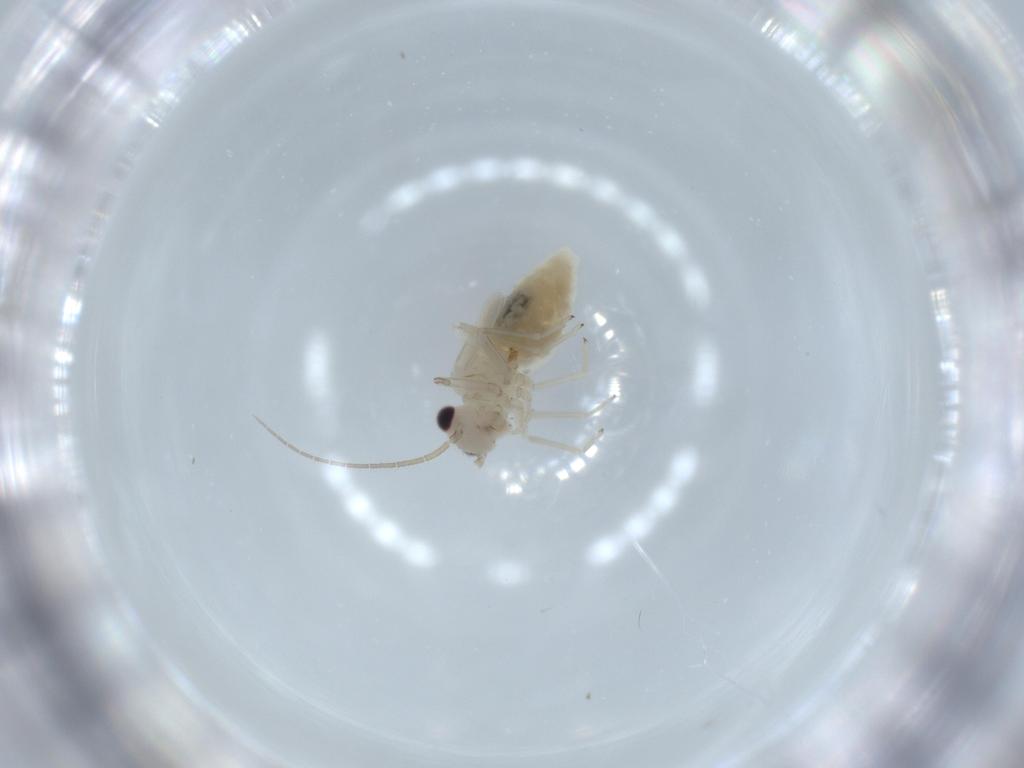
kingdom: Animalia
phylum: Arthropoda
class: Insecta
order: Psocodea
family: Caeciliusidae
